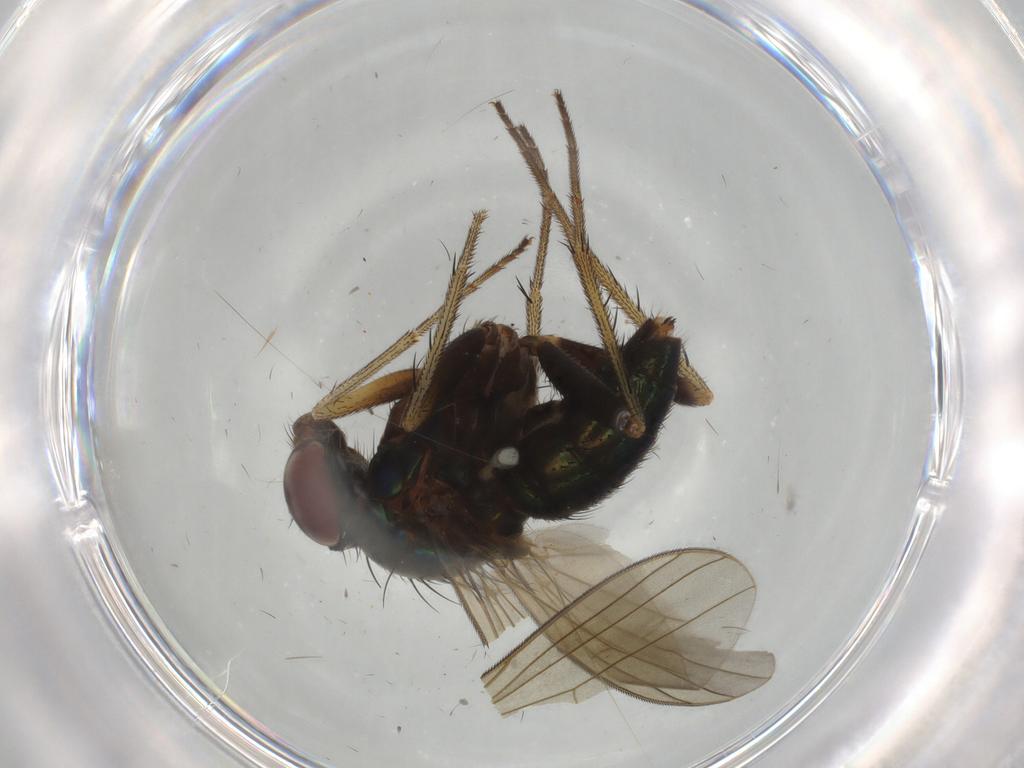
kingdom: Animalia
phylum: Arthropoda
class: Insecta
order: Diptera
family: Dolichopodidae
